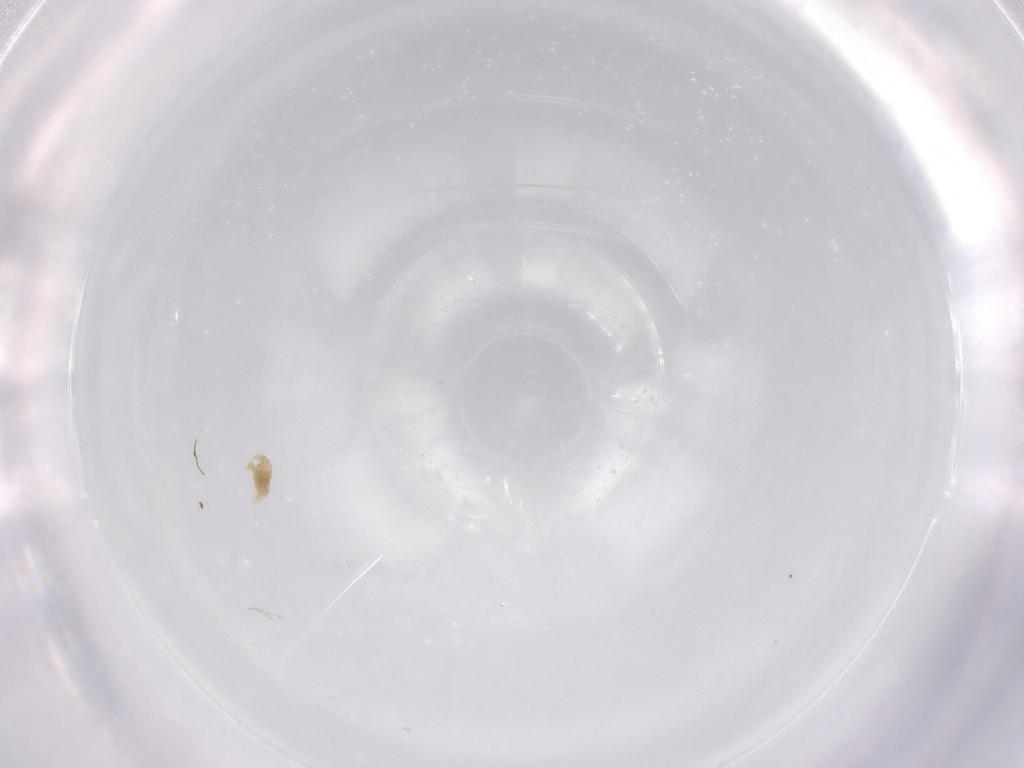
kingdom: Animalia
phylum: Arthropoda
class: Arachnida
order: Trombidiformes
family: Eupodidae
